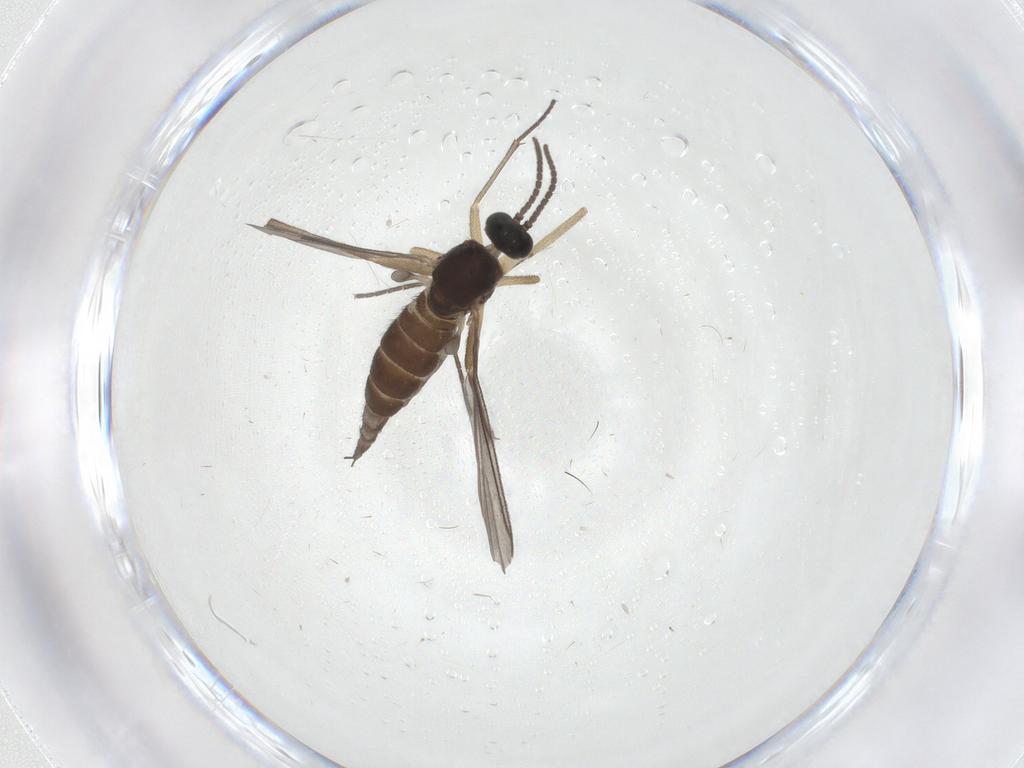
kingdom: Animalia
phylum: Arthropoda
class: Insecta
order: Diptera
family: Sciaridae
